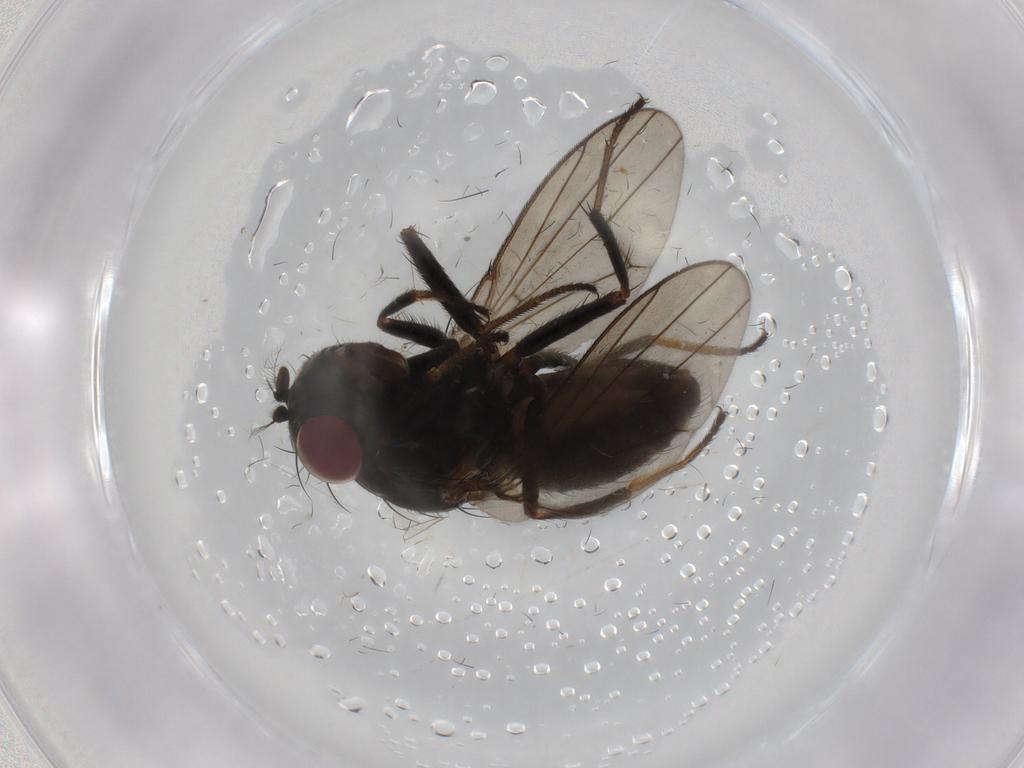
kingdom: Animalia
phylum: Arthropoda
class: Insecta
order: Diptera
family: Ephydridae
